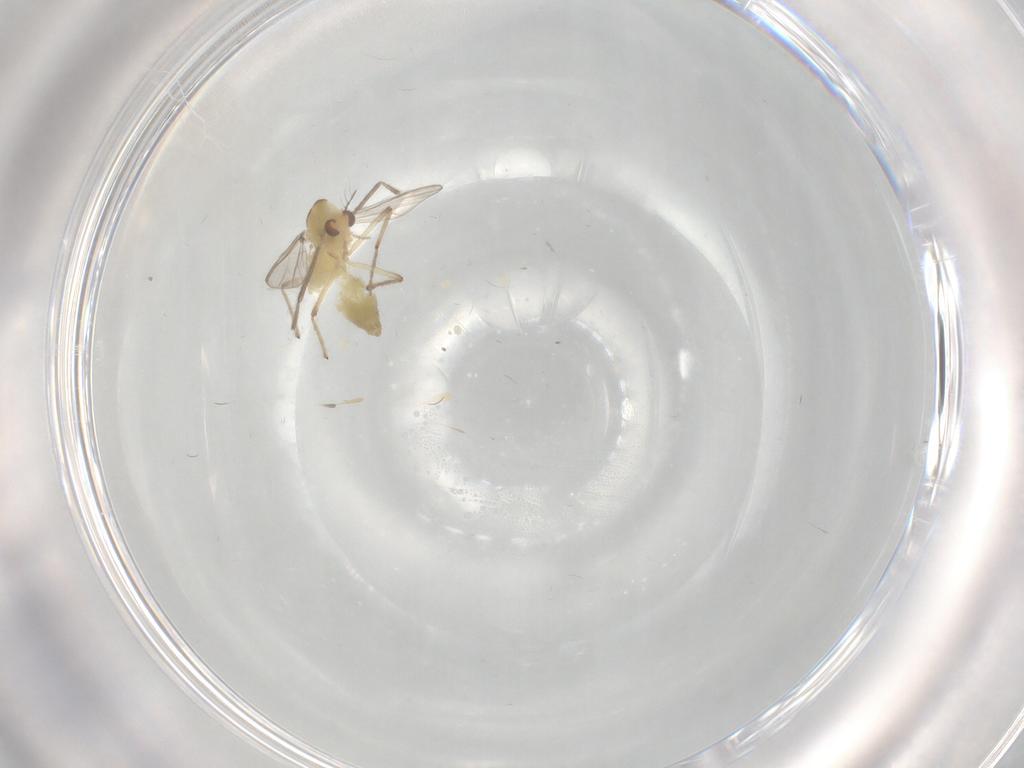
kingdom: Animalia
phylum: Arthropoda
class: Insecta
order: Diptera
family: Chironomidae
